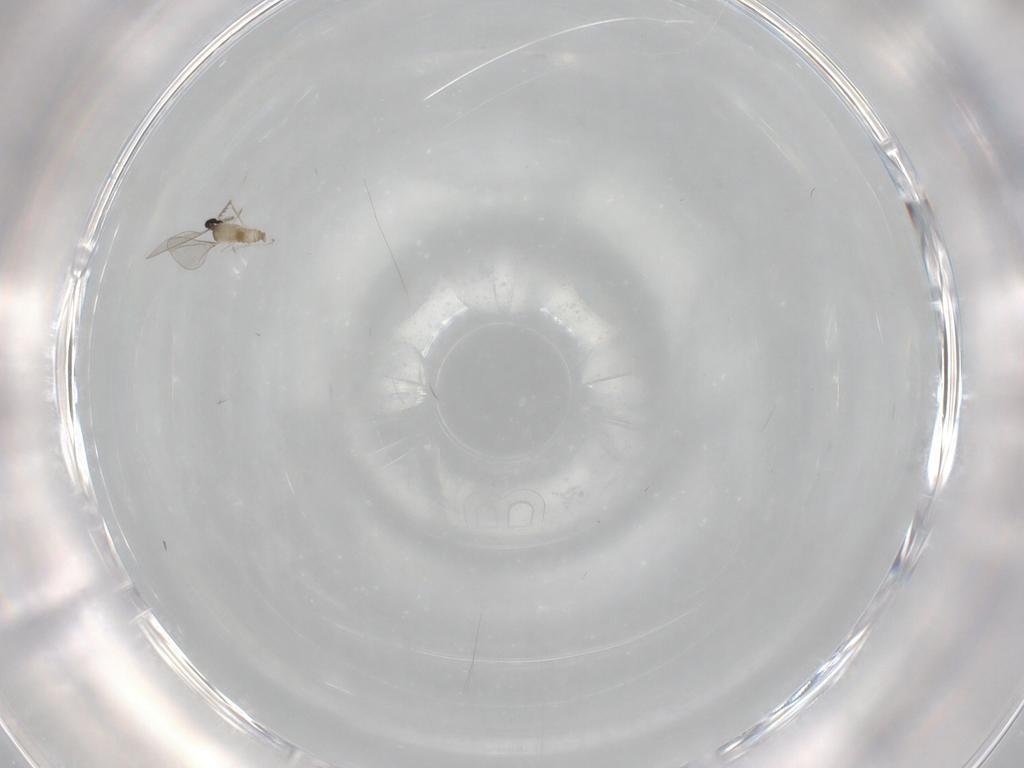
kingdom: Animalia
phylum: Arthropoda
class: Insecta
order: Diptera
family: Cecidomyiidae
